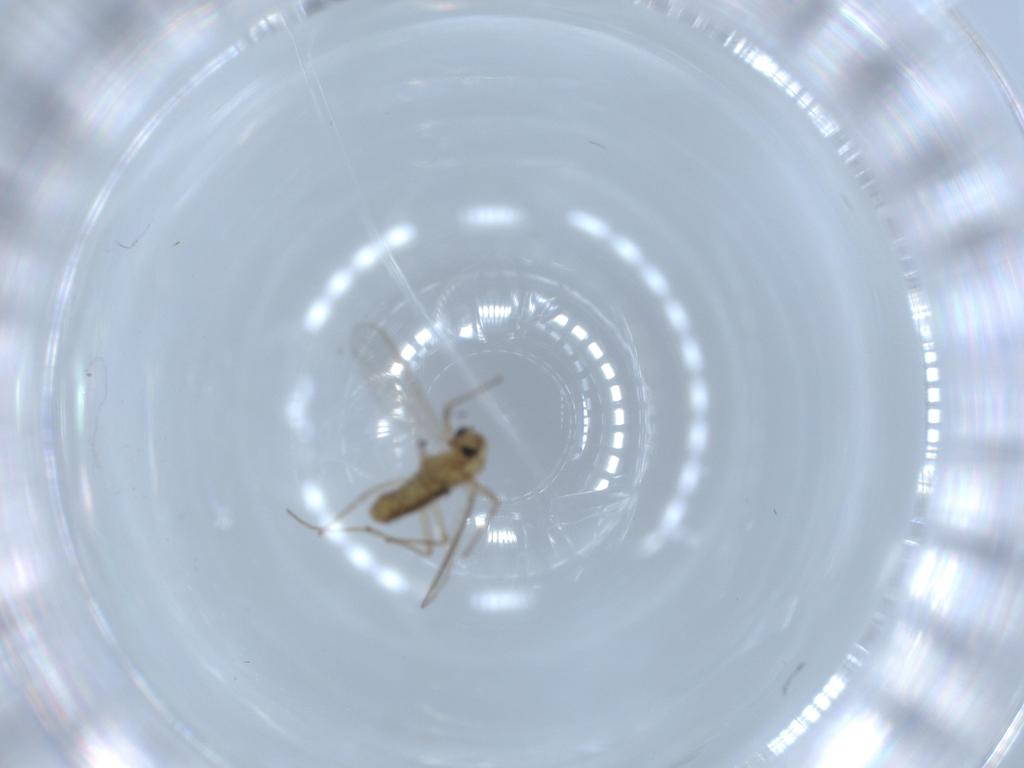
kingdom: Animalia
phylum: Arthropoda
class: Insecta
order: Diptera
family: Chironomidae
